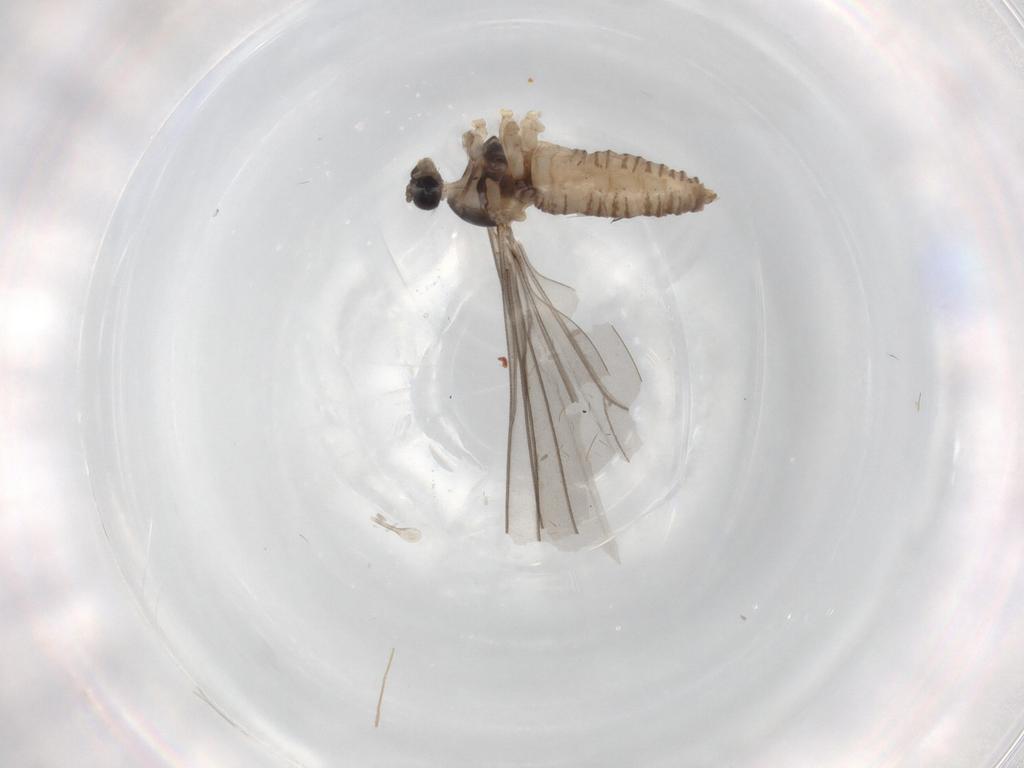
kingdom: Animalia
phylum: Arthropoda
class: Insecta
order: Diptera
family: Cecidomyiidae
